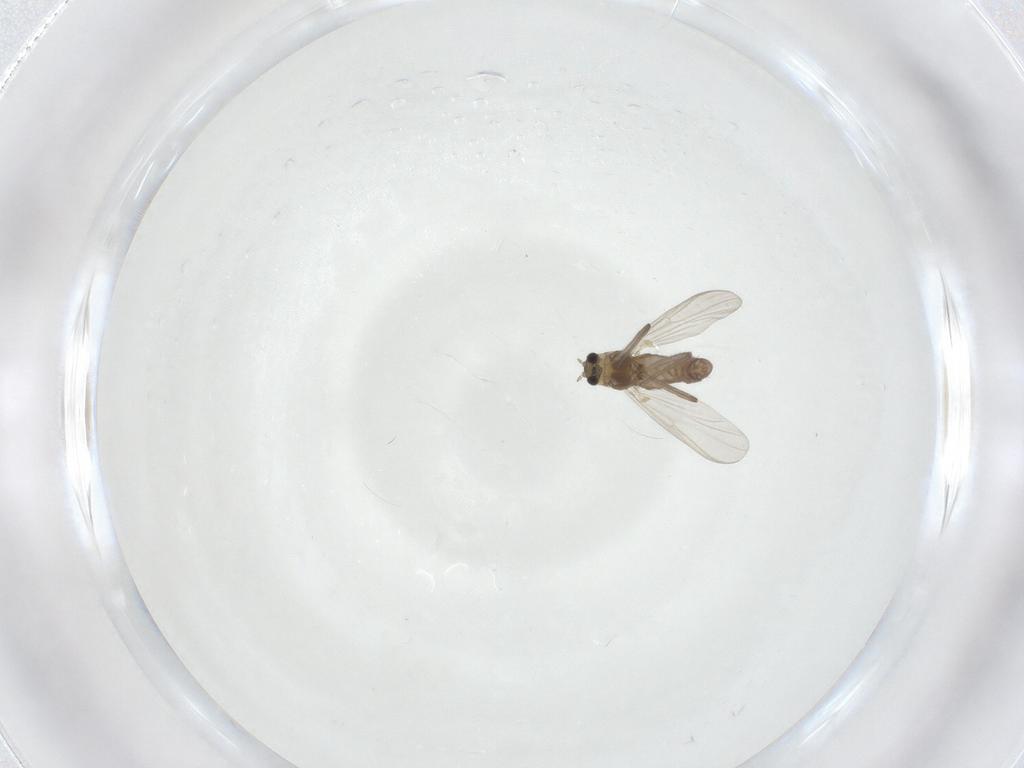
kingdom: Animalia
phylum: Arthropoda
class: Insecta
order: Diptera
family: Chironomidae
